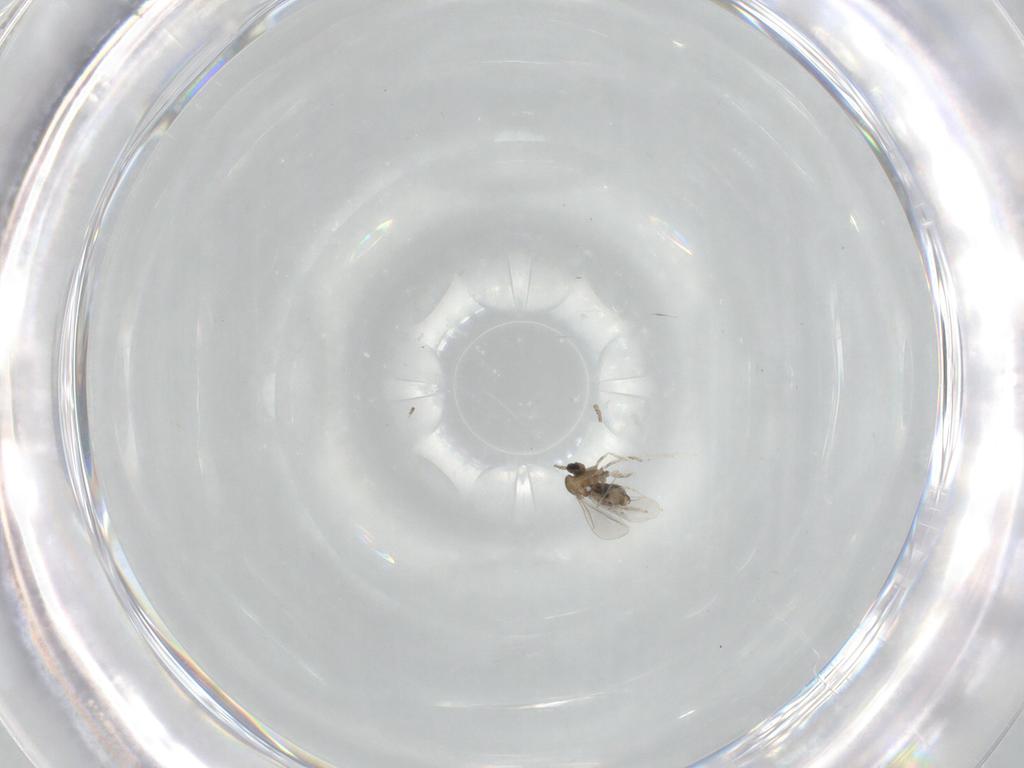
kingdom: Animalia
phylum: Arthropoda
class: Insecta
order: Diptera
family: Cecidomyiidae
